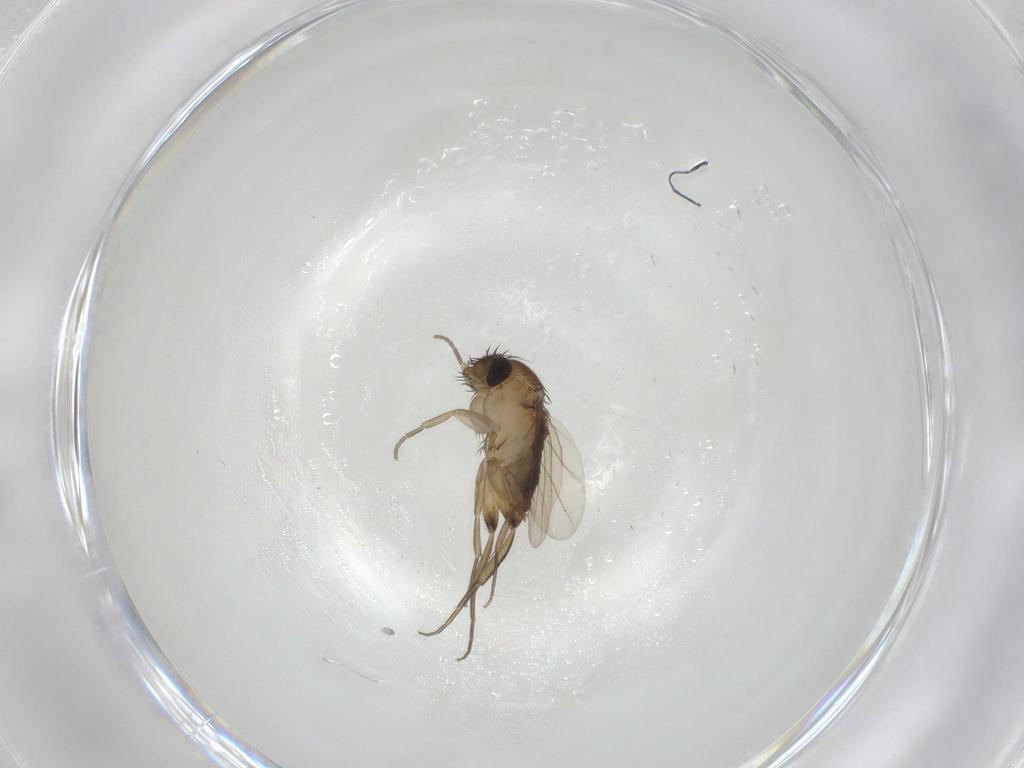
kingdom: Animalia
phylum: Arthropoda
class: Insecta
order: Diptera
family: Phoridae
